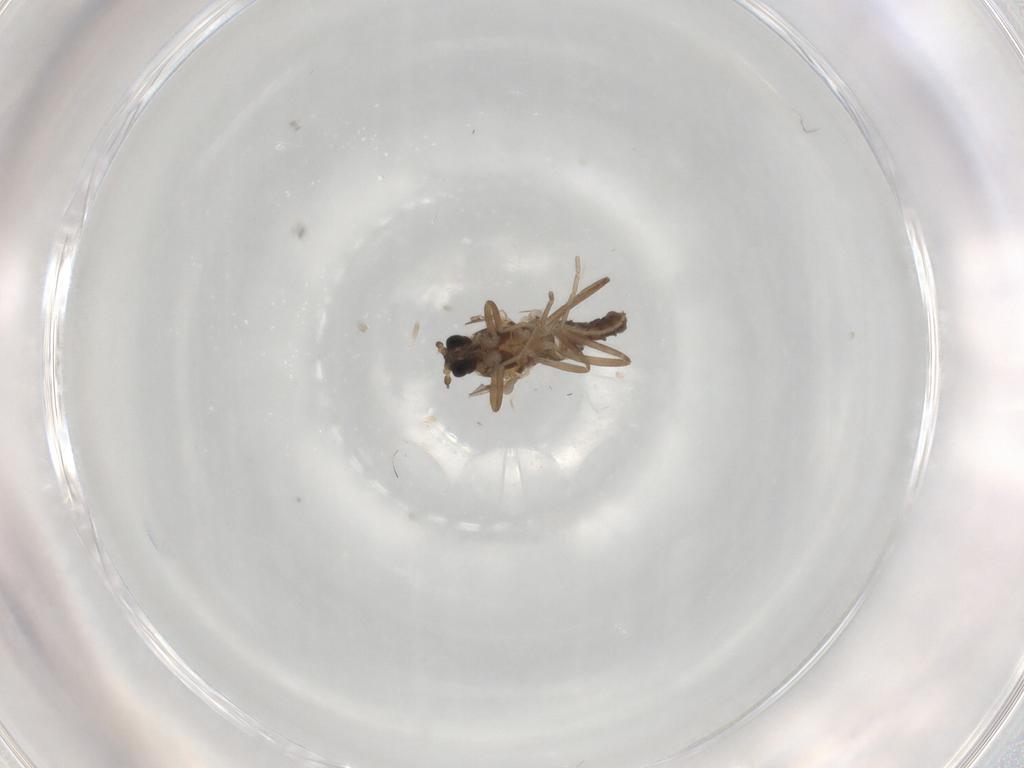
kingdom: Animalia
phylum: Arthropoda
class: Insecta
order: Diptera
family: Cecidomyiidae
